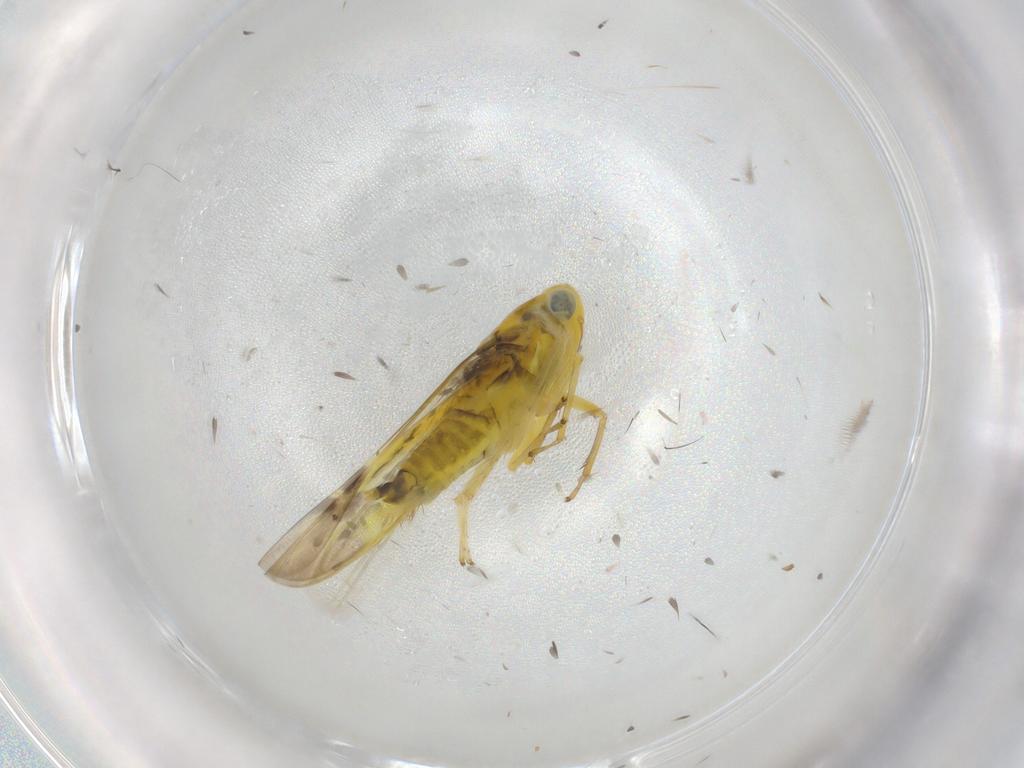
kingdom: Animalia
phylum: Arthropoda
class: Insecta
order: Hemiptera
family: Cicadellidae
